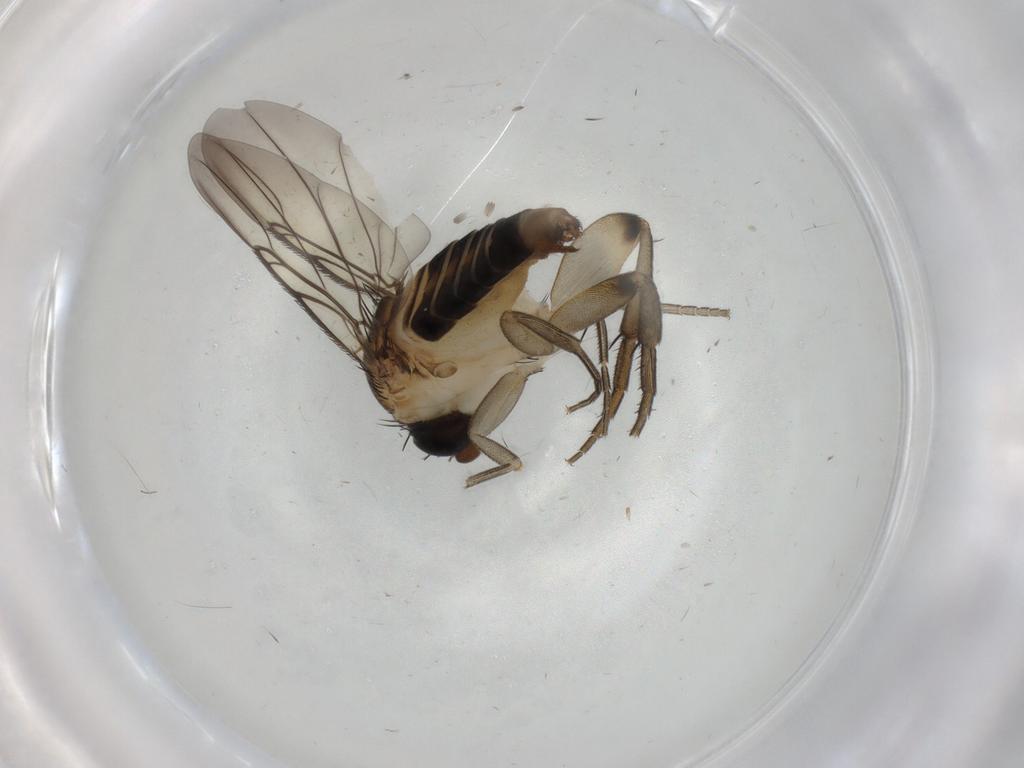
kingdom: Animalia
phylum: Arthropoda
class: Insecta
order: Diptera
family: Phoridae
